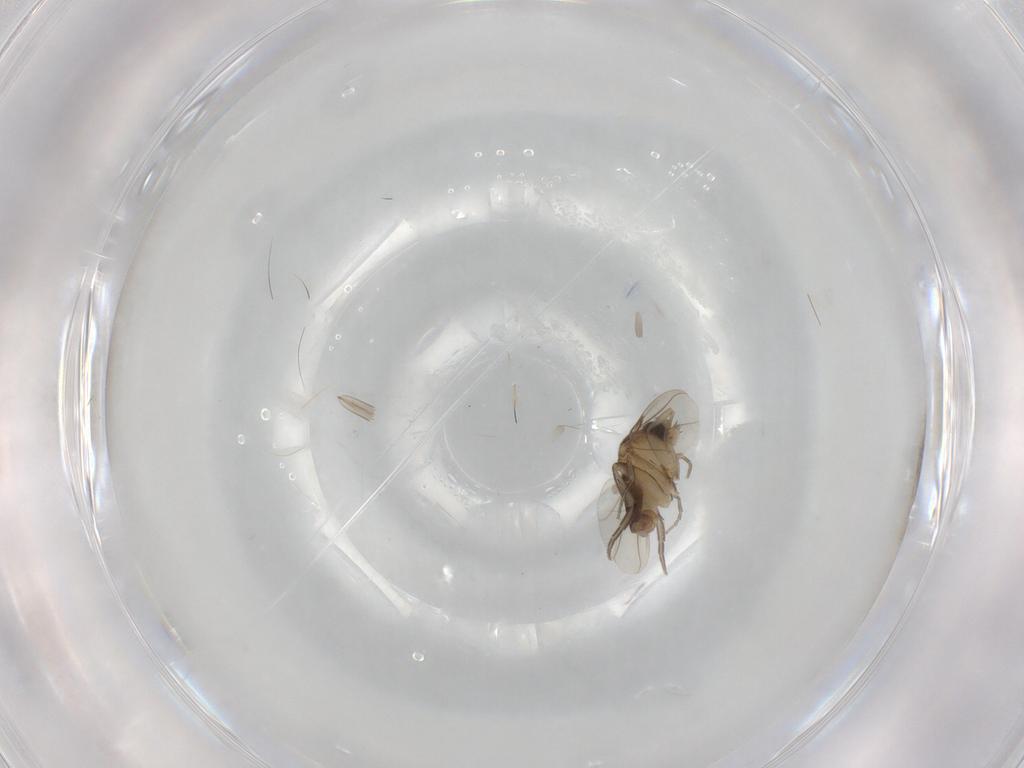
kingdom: Animalia
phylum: Arthropoda
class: Insecta
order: Diptera
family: Phoridae
